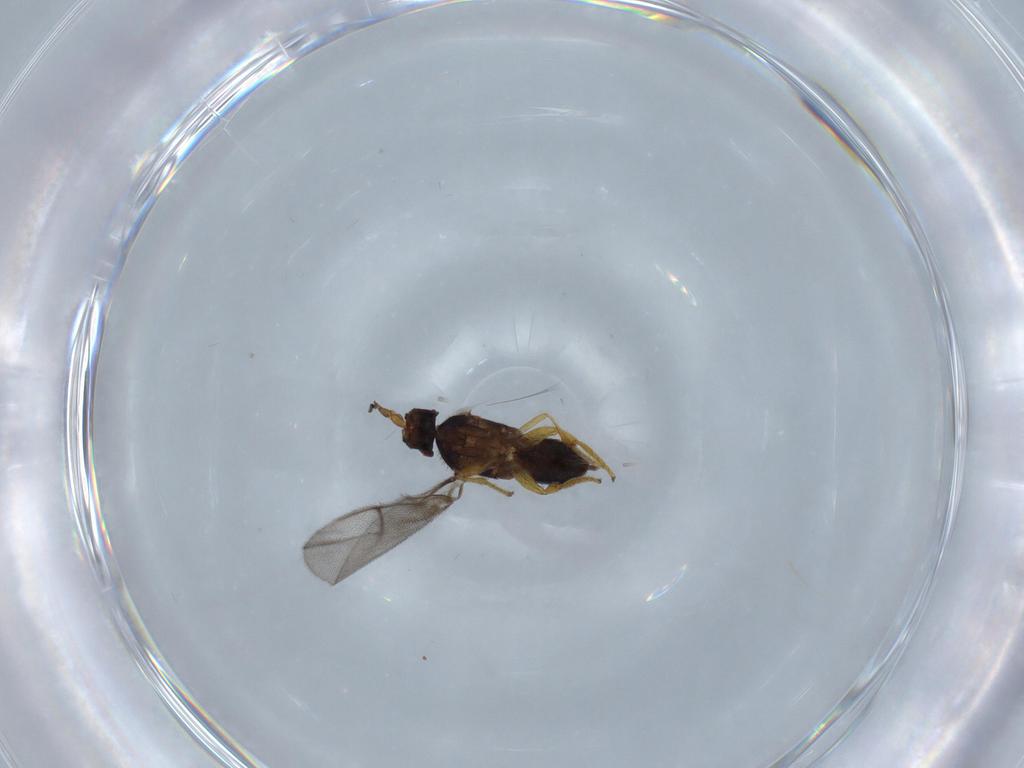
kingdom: Animalia
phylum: Arthropoda
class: Insecta
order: Hymenoptera
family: Agaonidae
